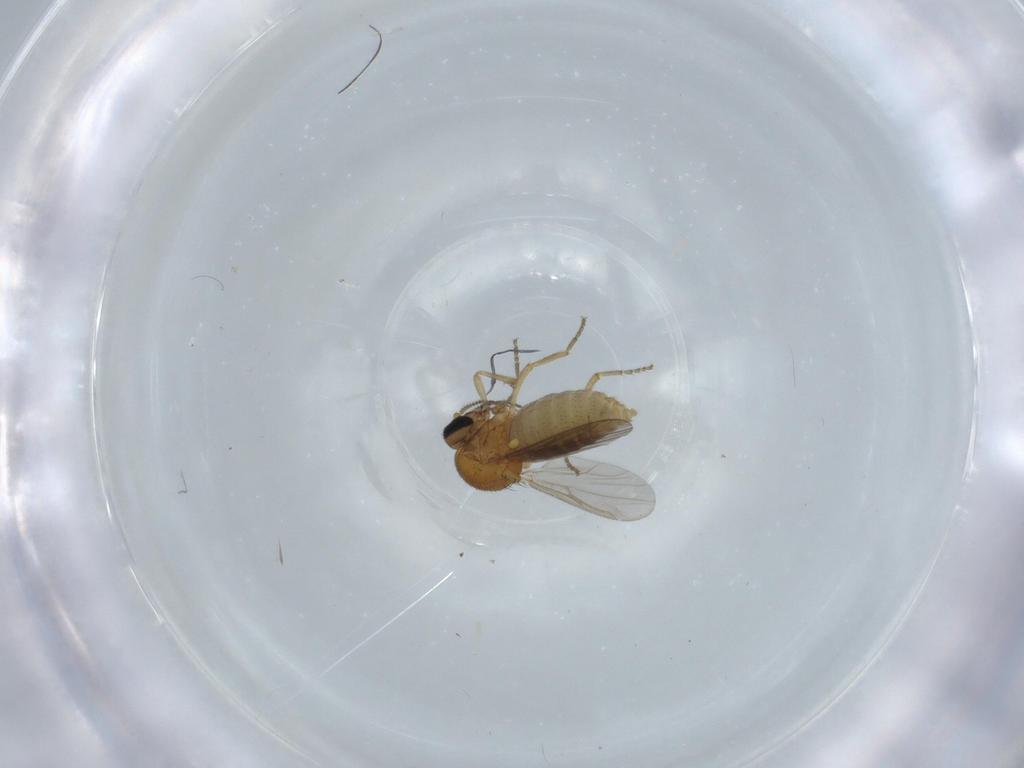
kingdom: Animalia
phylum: Arthropoda
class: Insecta
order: Diptera
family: Ceratopogonidae
